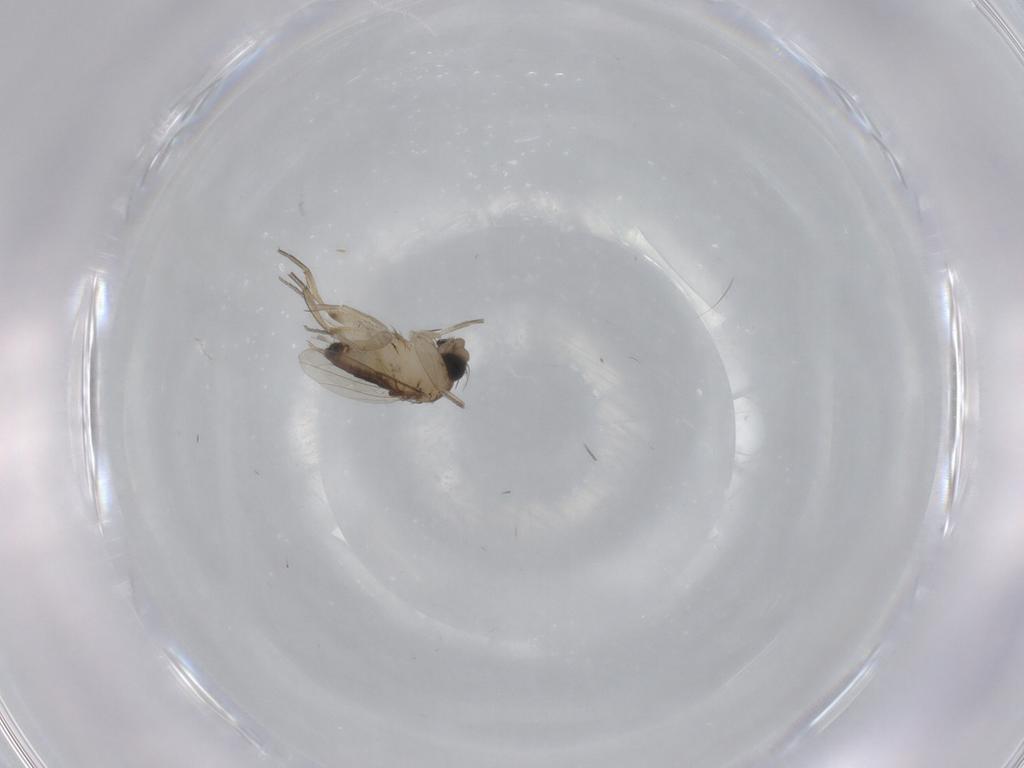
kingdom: Animalia
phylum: Arthropoda
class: Insecta
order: Diptera
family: Phoridae
